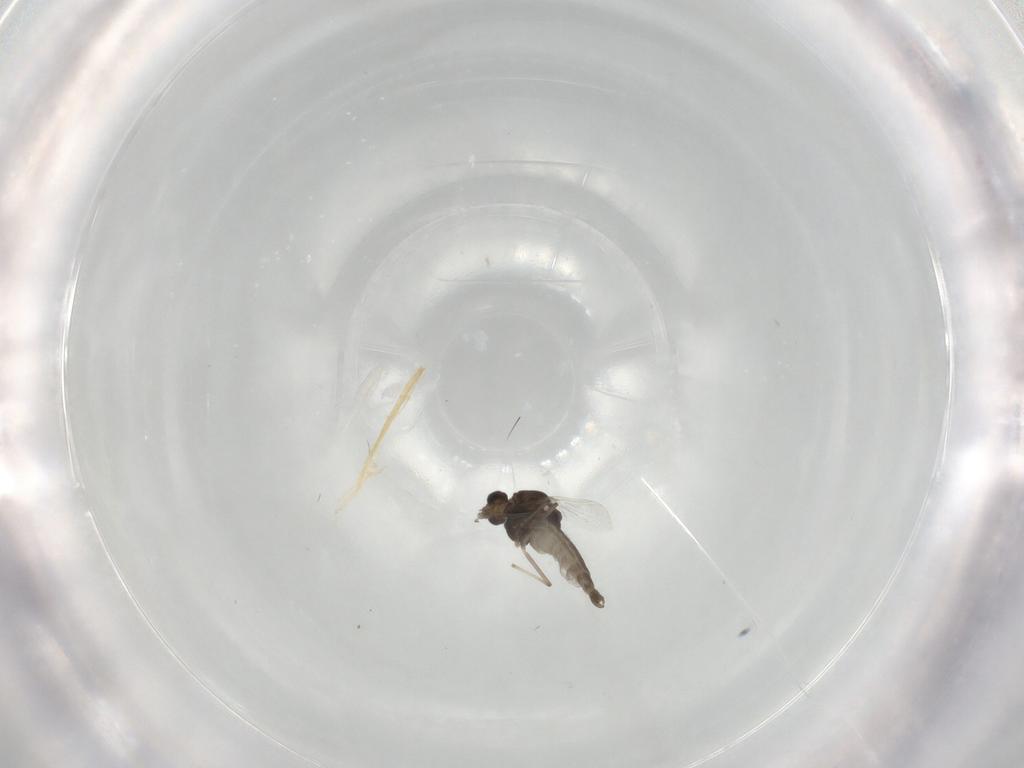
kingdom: Animalia
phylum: Arthropoda
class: Insecta
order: Diptera
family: Chironomidae
